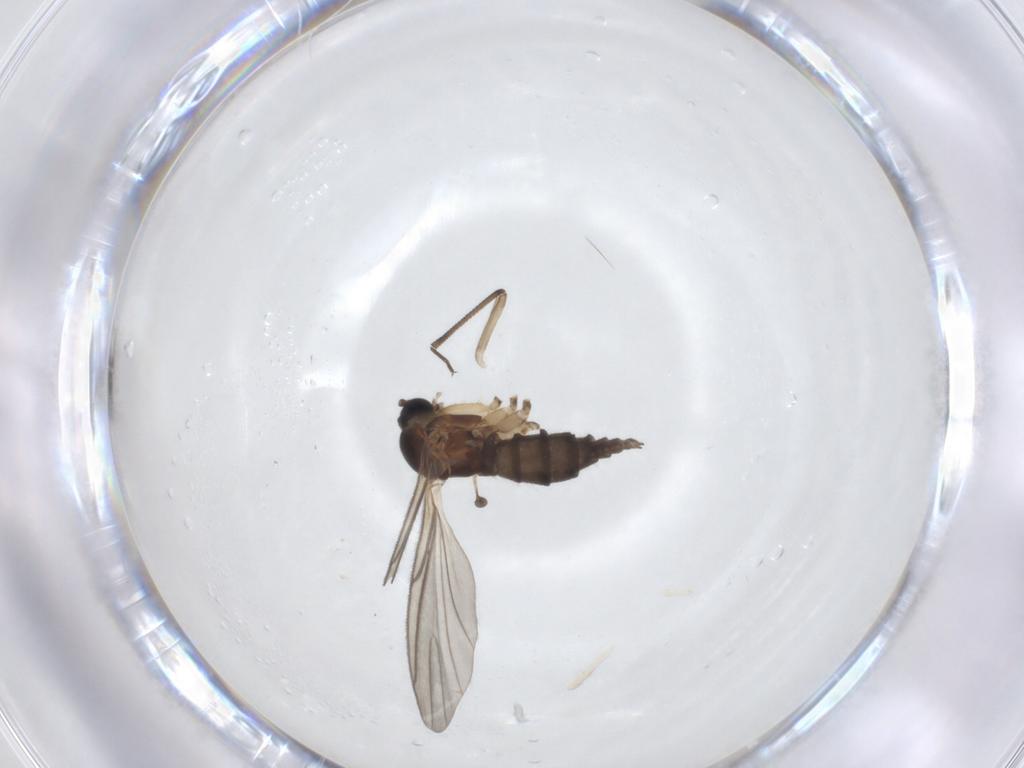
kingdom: Animalia
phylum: Arthropoda
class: Insecta
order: Diptera
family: Sciaridae
